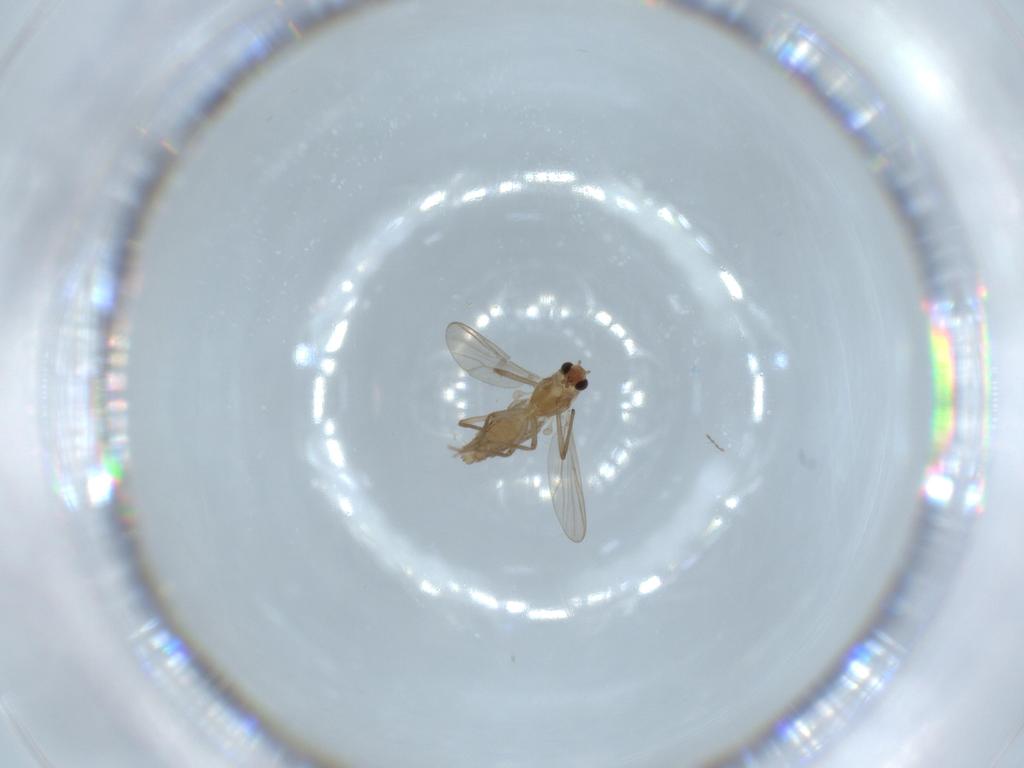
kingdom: Animalia
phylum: Arthropoda
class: Insecta
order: Diptera
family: Chironomidae
